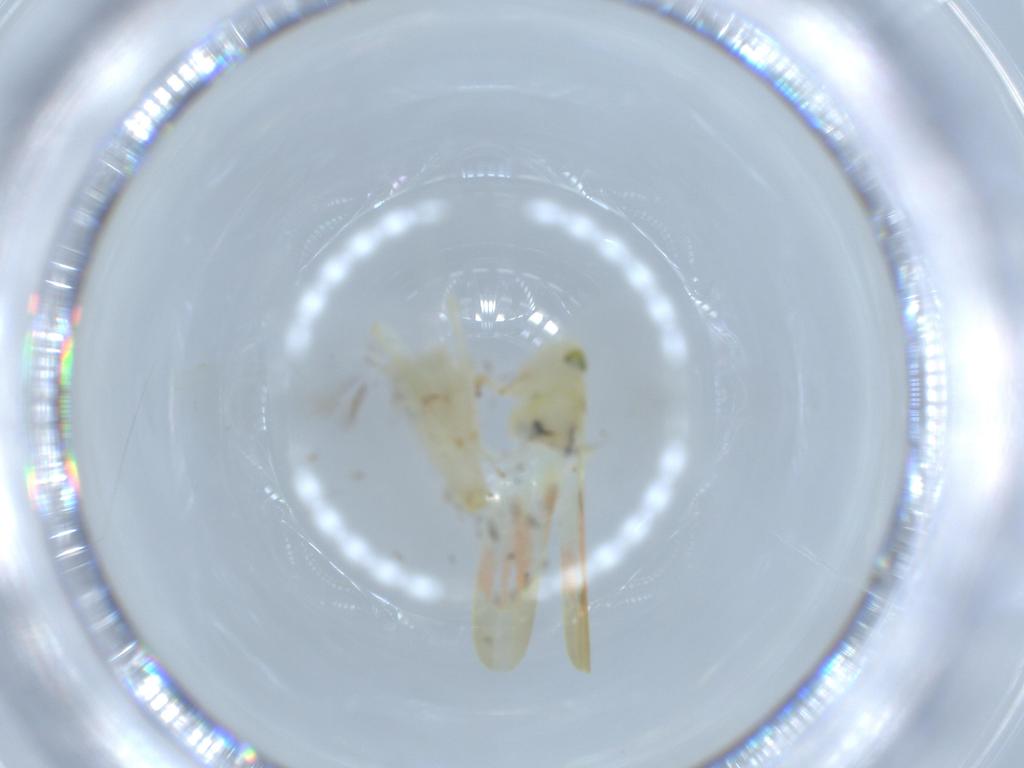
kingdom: Animalia
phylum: Arthropoda
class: Insecta
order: Hemiptera
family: Cicadellidae
